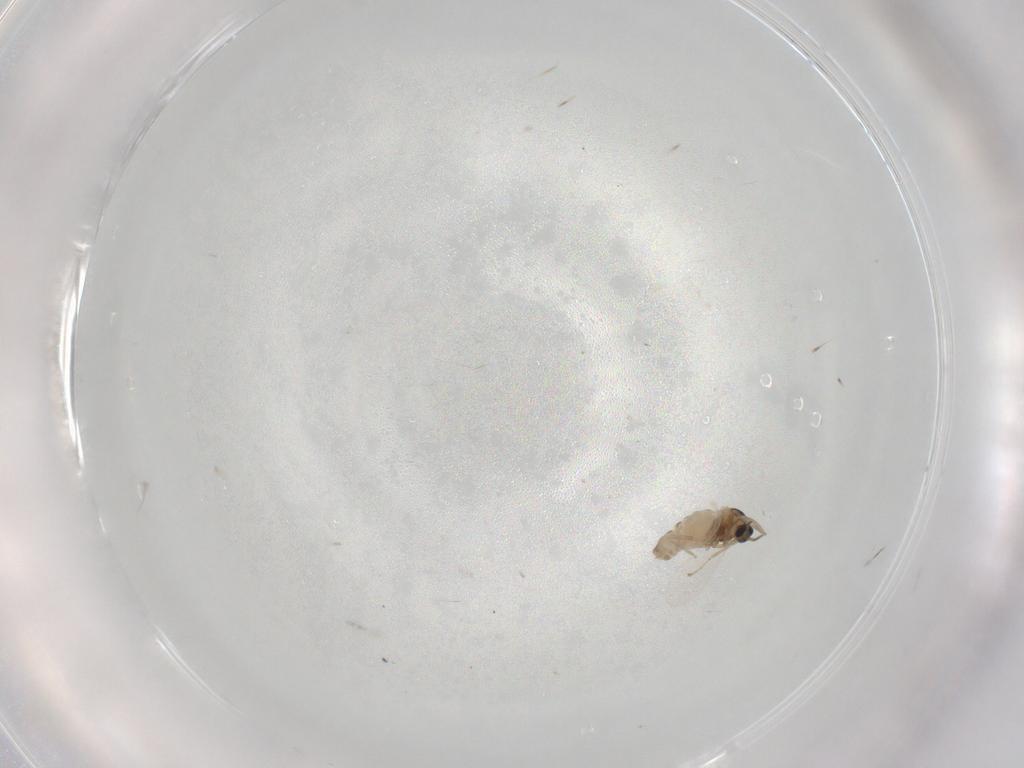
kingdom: Animalia
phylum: Arthropoda
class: Insecta
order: Diptera
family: Cecidomyiidae
